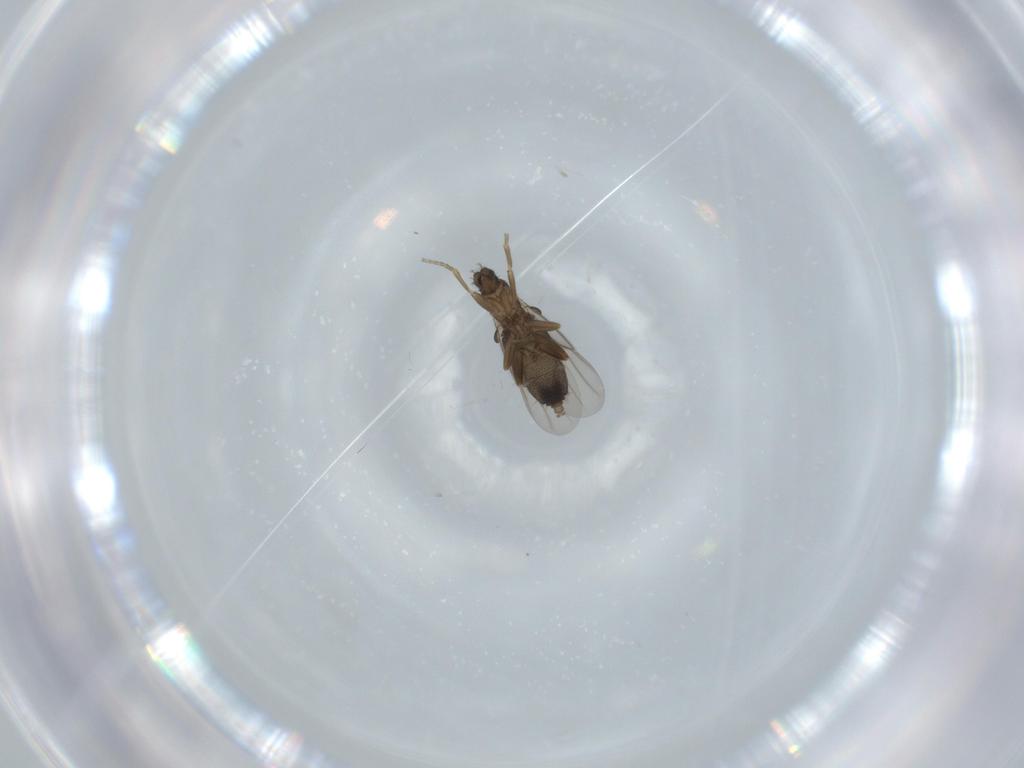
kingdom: Animalia
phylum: Arthropoda
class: Insecta
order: Diptera
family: Phoridae
